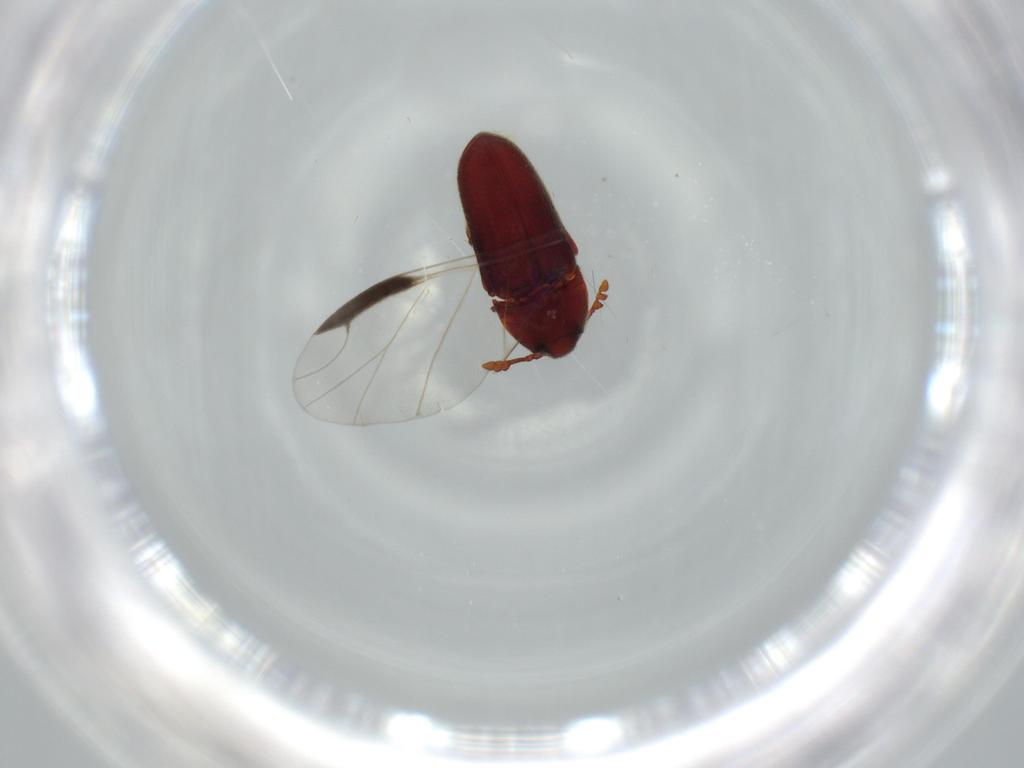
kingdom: Animalia
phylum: Arthropoda
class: Insecta
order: Coleoptera
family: Throscidae
